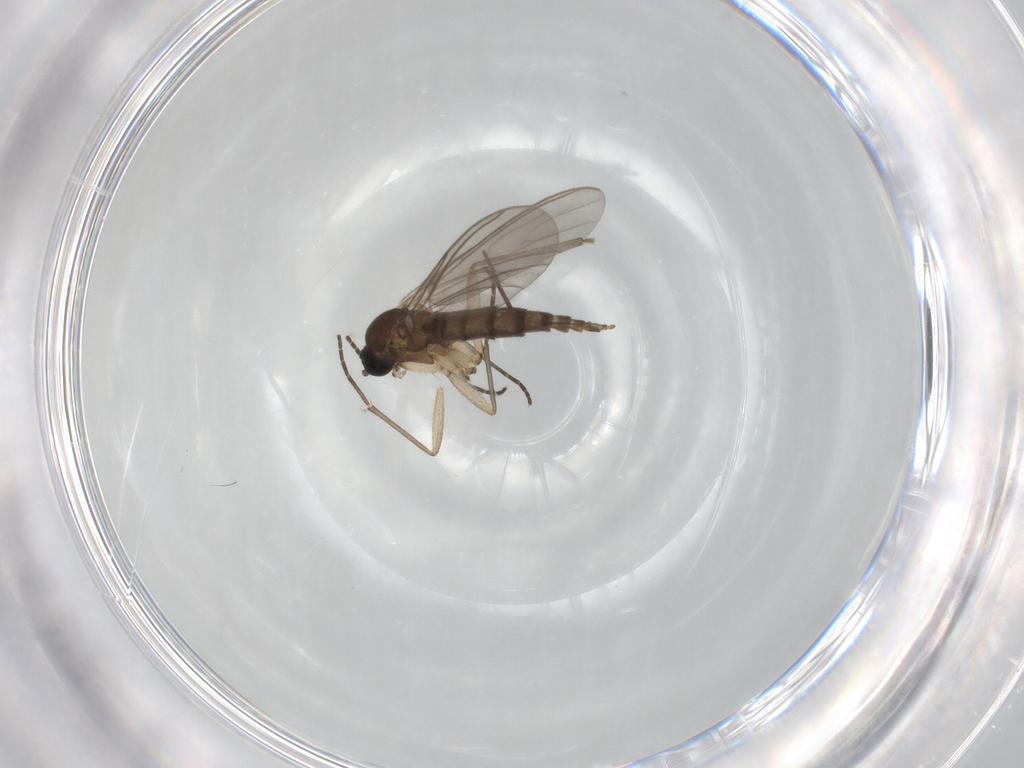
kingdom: Animalia
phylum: Arthropoda
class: Insecta
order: Diptera
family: Sciaridae
